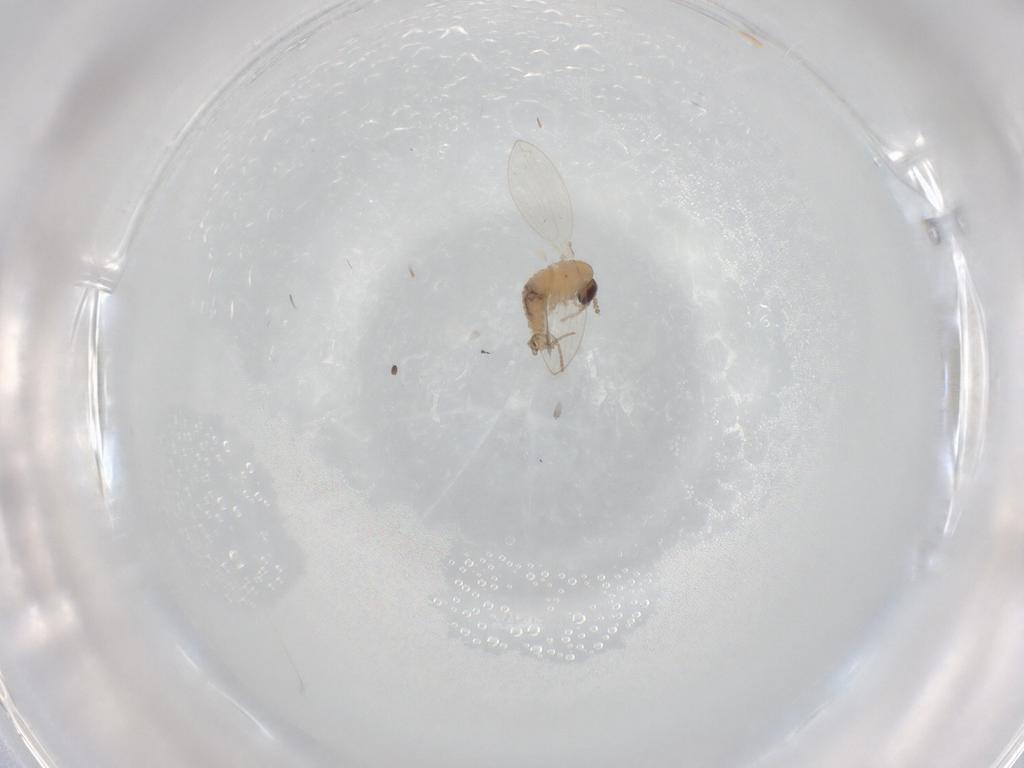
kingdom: Animalia
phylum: Arthropoda
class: Insecta
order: Diptera
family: Psychodidae
